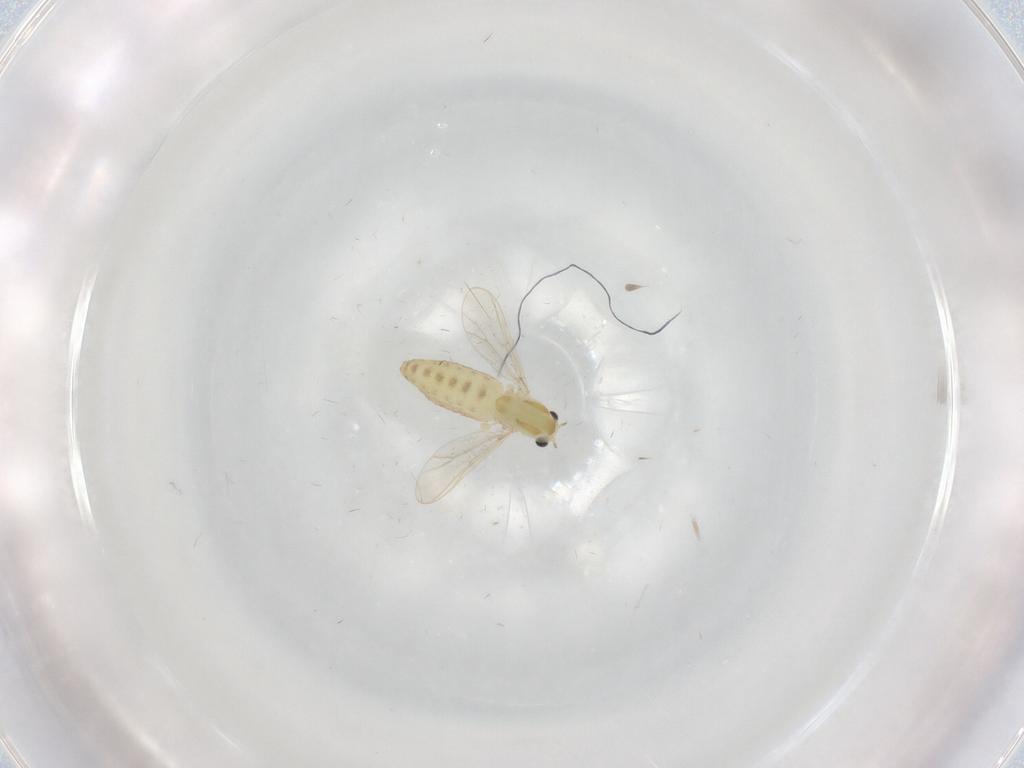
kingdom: Animalia
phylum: Arthropoda
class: Insecta
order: Diptera
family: Chironomidae
